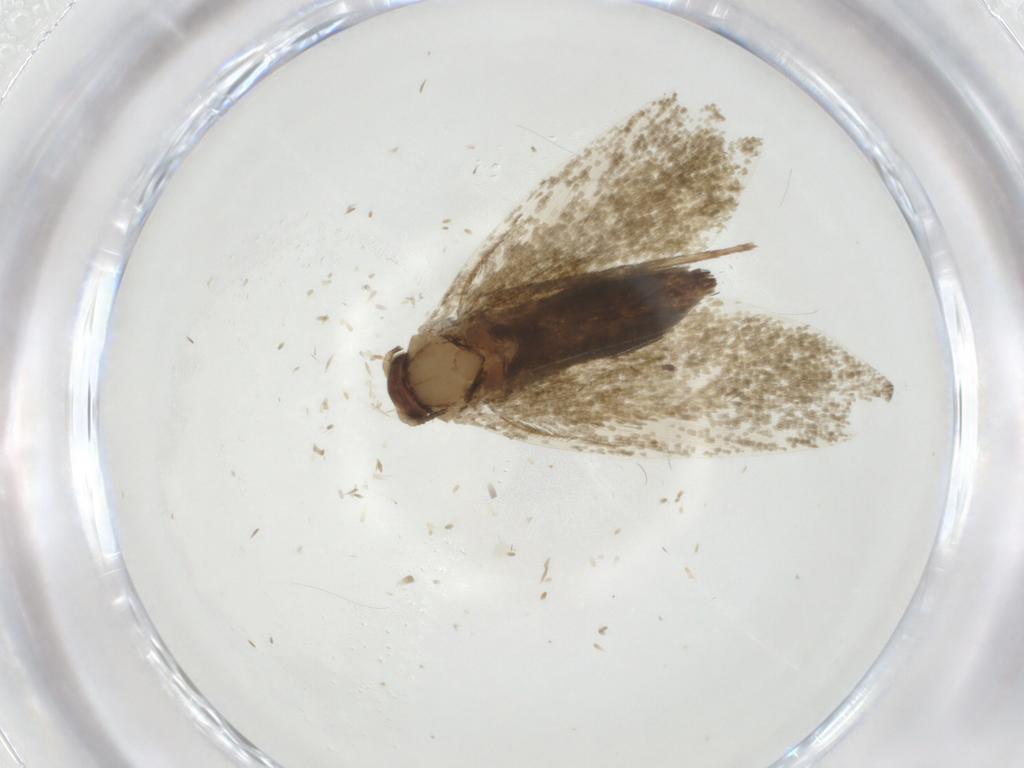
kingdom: Animalia
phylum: Arthropoda
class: Insecta
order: Lepidoptera
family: Tineidae
